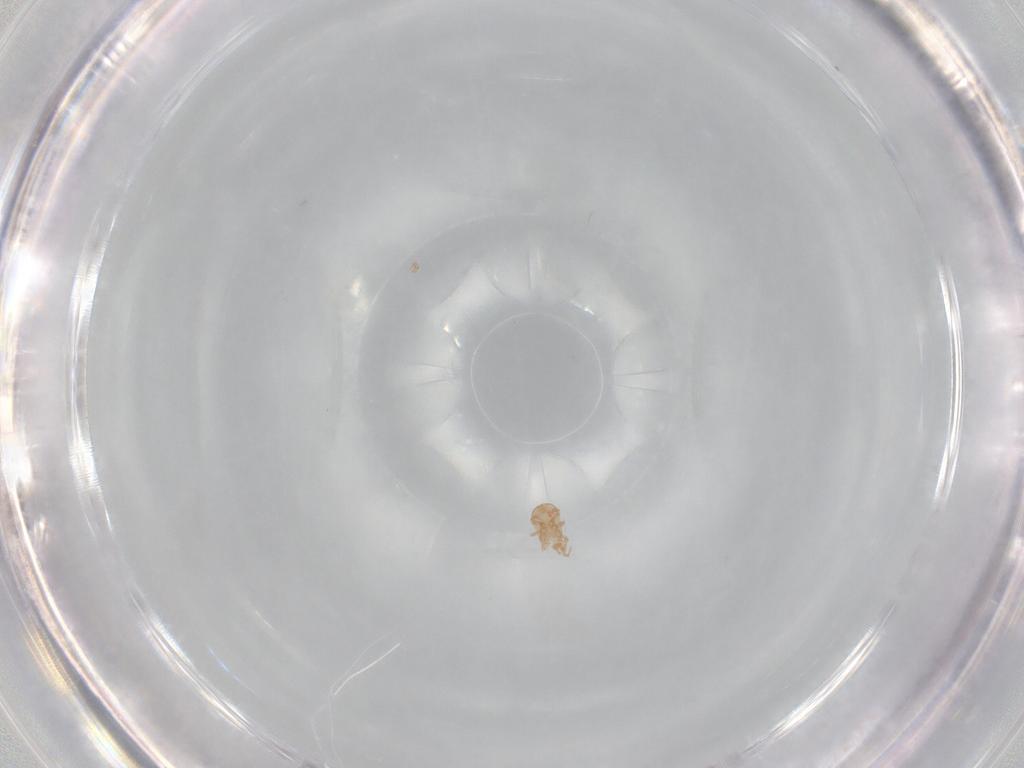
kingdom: Animalia
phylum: Arthropoda
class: Arachnida
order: Mesostigmata
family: Ascidae
